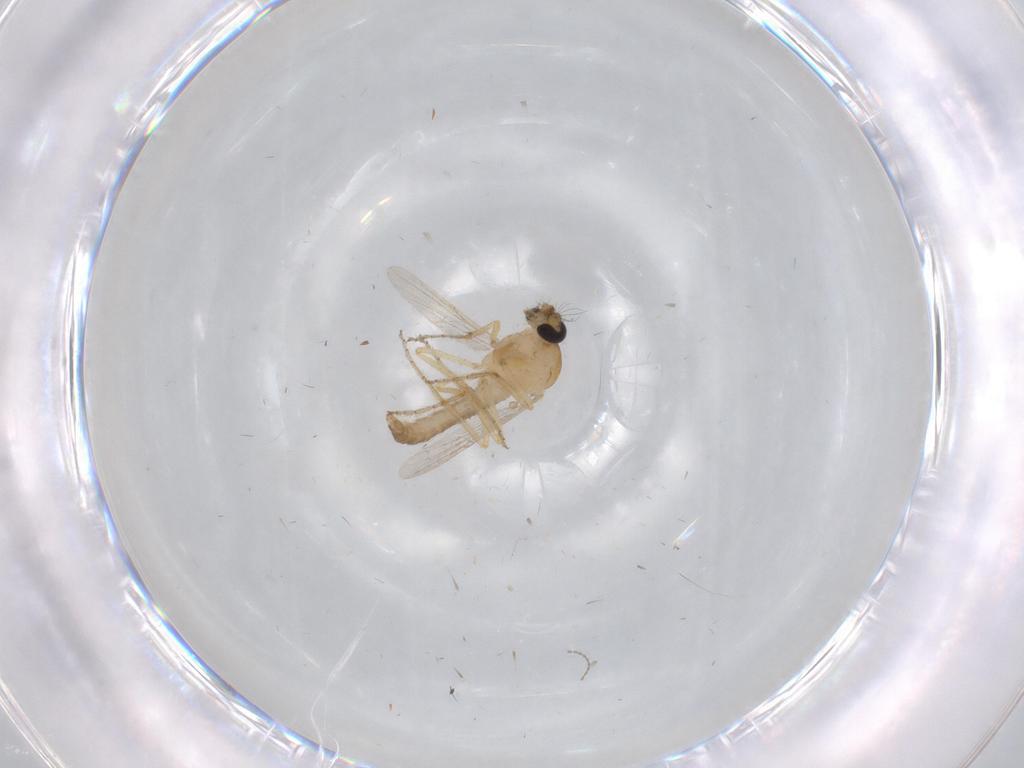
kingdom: Animalia
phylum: Arthropoda
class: Insecta
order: Diptera
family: Ceratopogonidae
